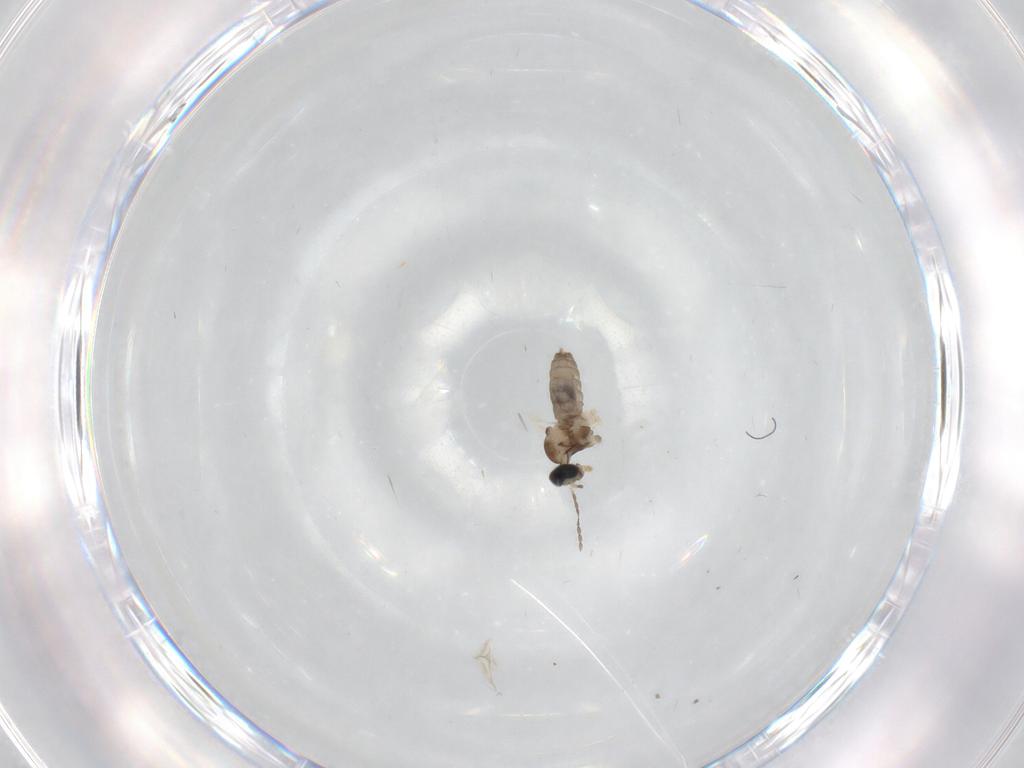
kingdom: Animalia
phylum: Arthropoda
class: Insecta
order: Diptera
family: Cecidomyiidae
